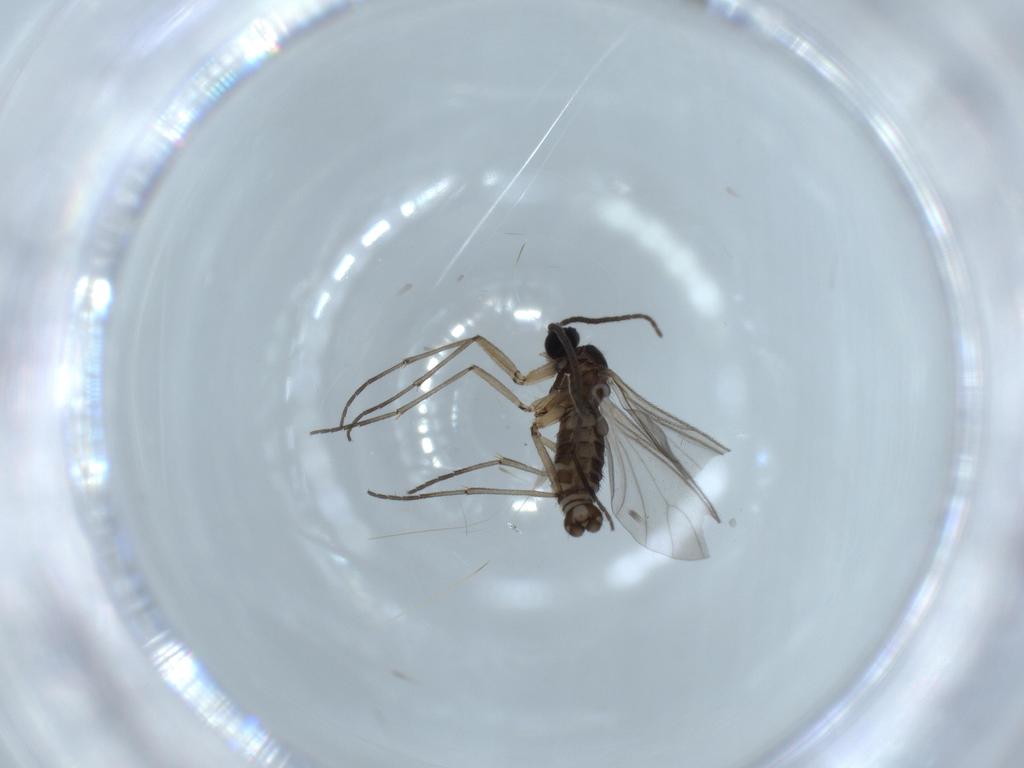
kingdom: Animalia
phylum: Arthropoda
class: Insecta
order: Diptera
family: Sciaridae
